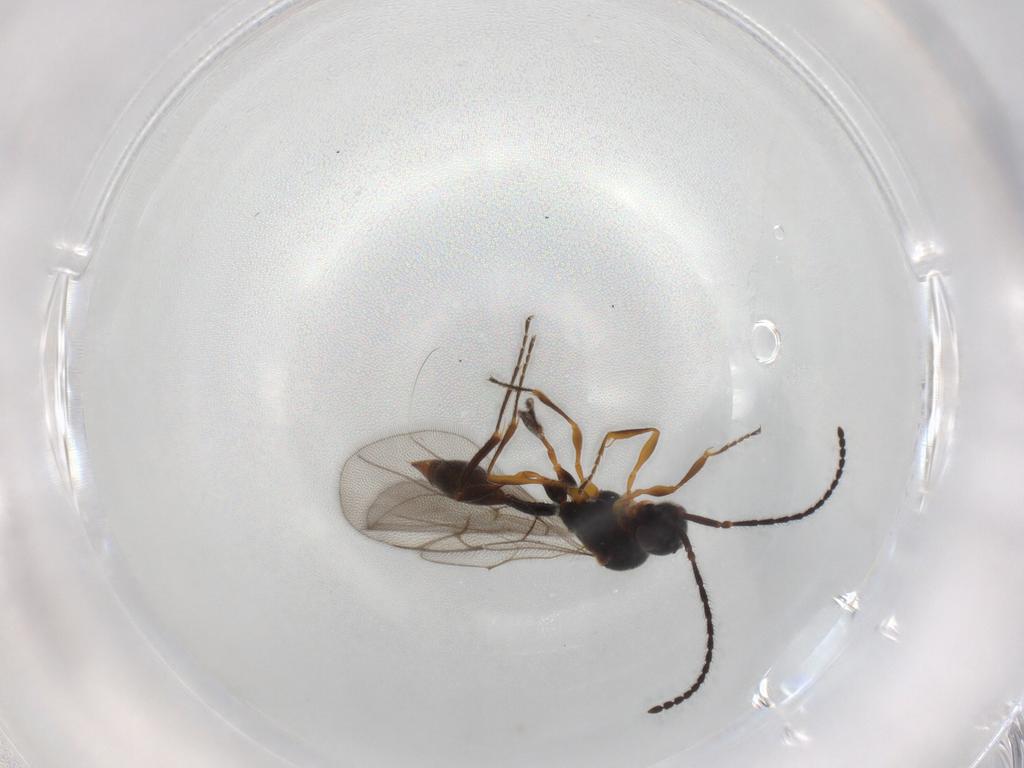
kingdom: Animalia
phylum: Arthropoda
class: Insecta
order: Hymenoptera
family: Diapriidae
